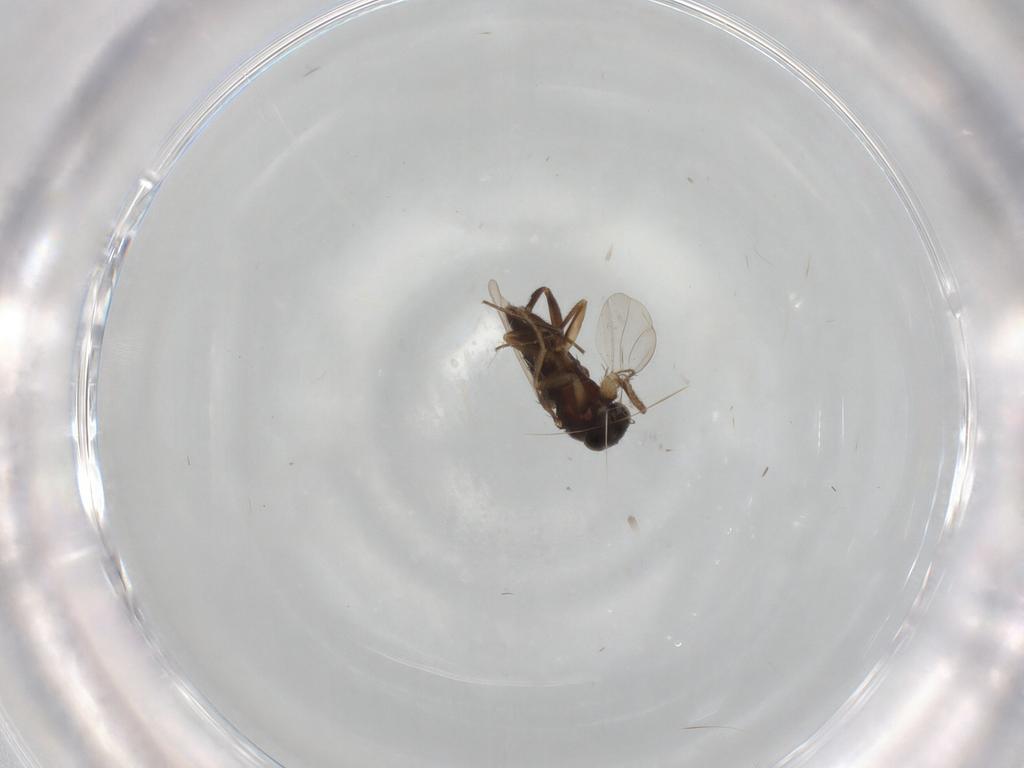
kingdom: Animalia
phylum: Arthropoda
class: Insecta
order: Diptera
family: Phoridae
